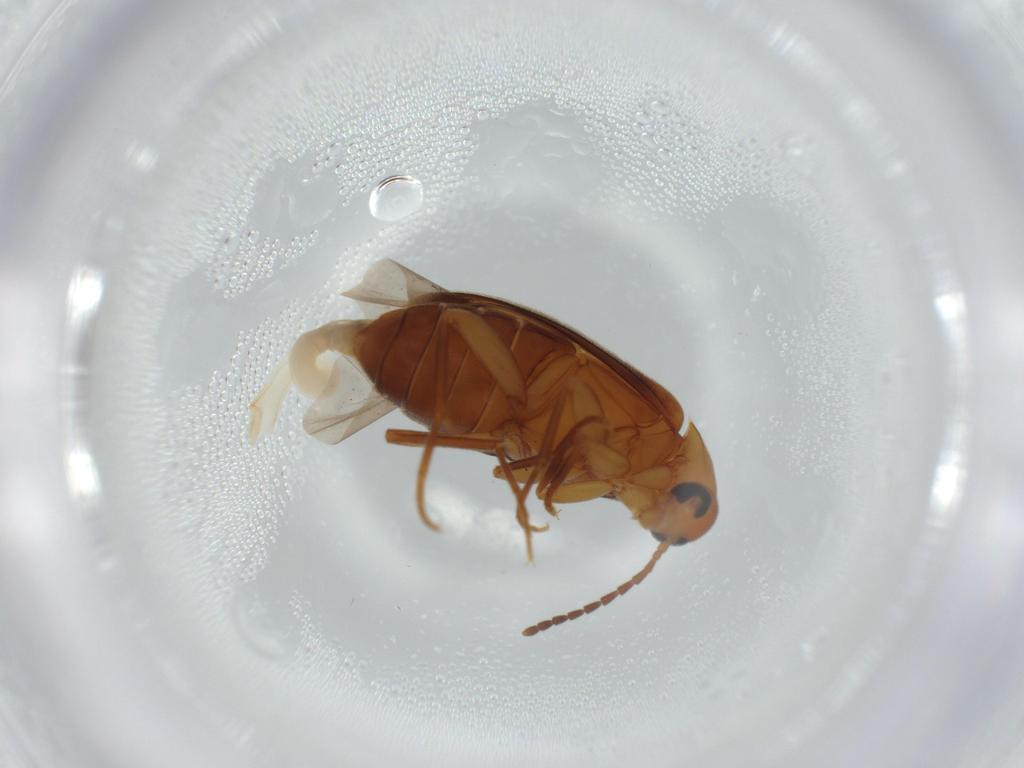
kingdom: Animalia
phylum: Arthropoda
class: Insecta
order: Coleoptera
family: Scraptiidae
